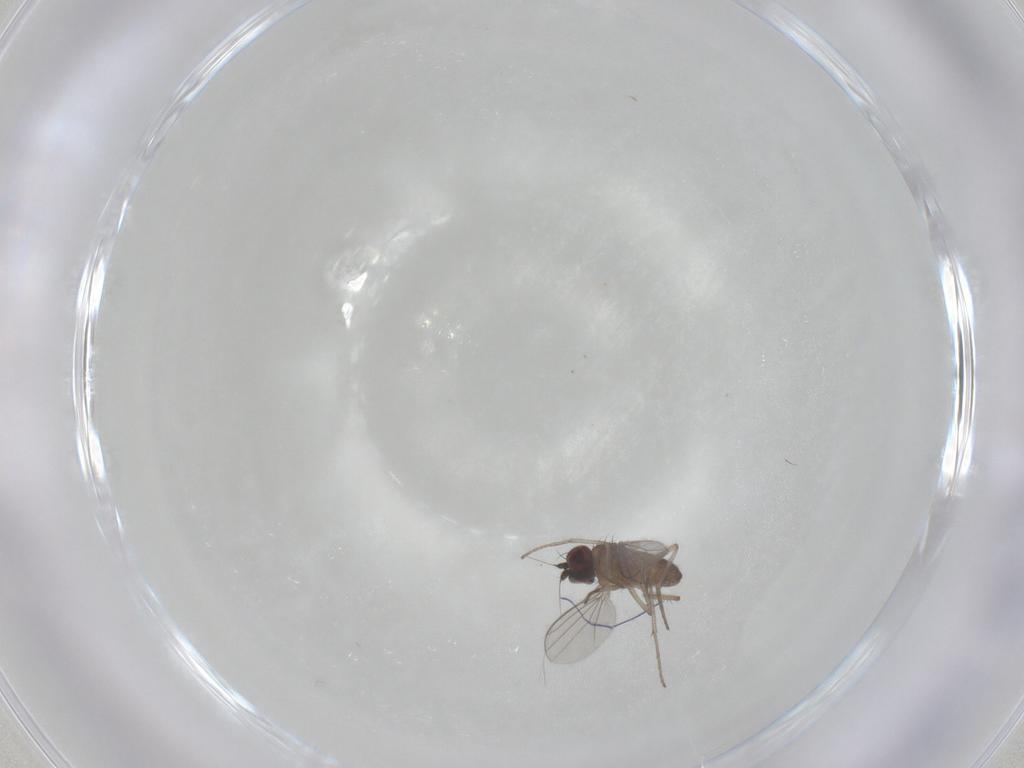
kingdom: Animalia
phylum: Arthropoda
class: Insecta
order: Diptera
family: Dolichopodidae
